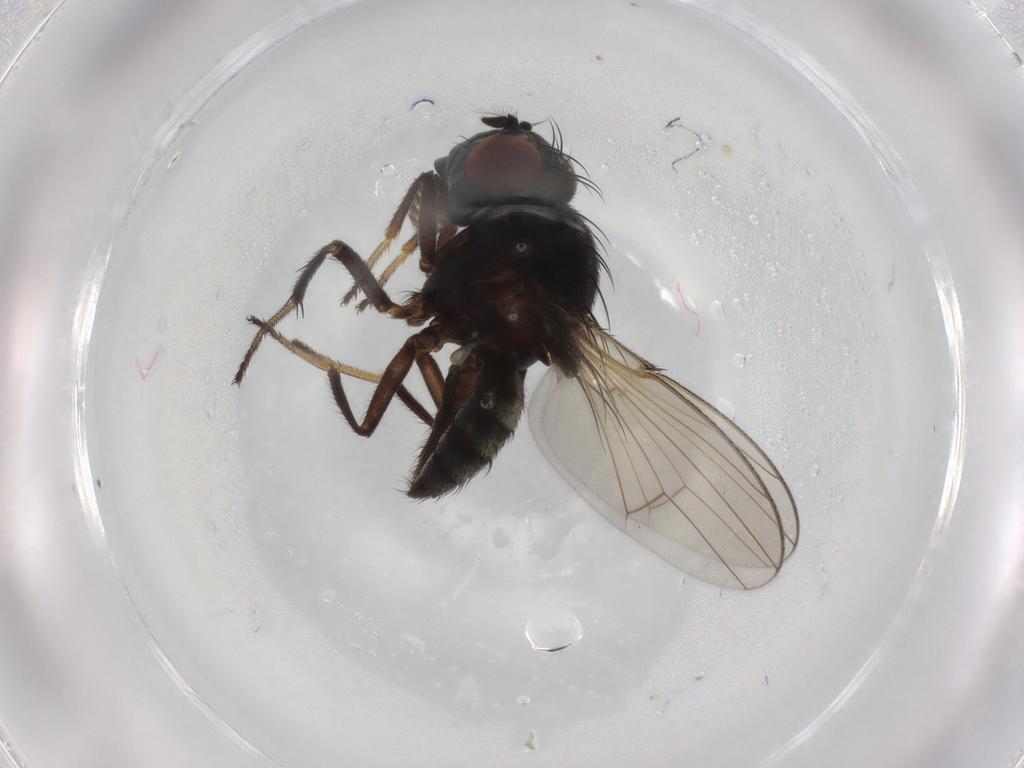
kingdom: Animalia
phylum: Arthropoda
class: Insecta
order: Diptera
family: Ephydridae
